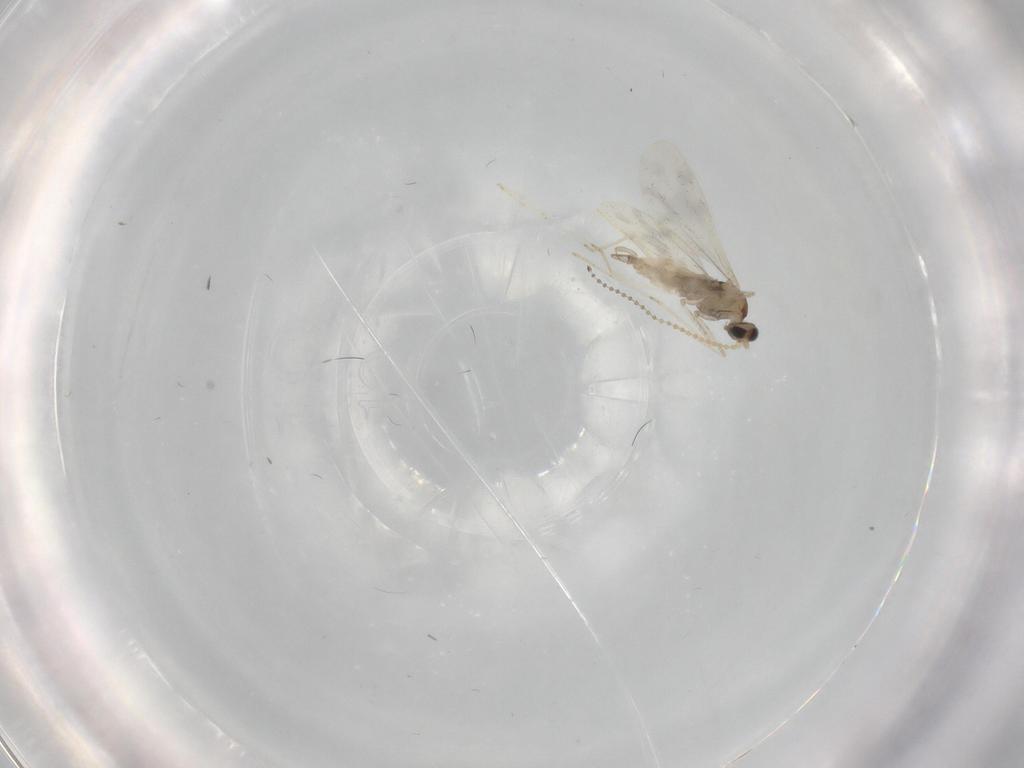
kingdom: Animalia
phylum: Arthropoda
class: Insecta
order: Diptera
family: Cecidomyiidae
